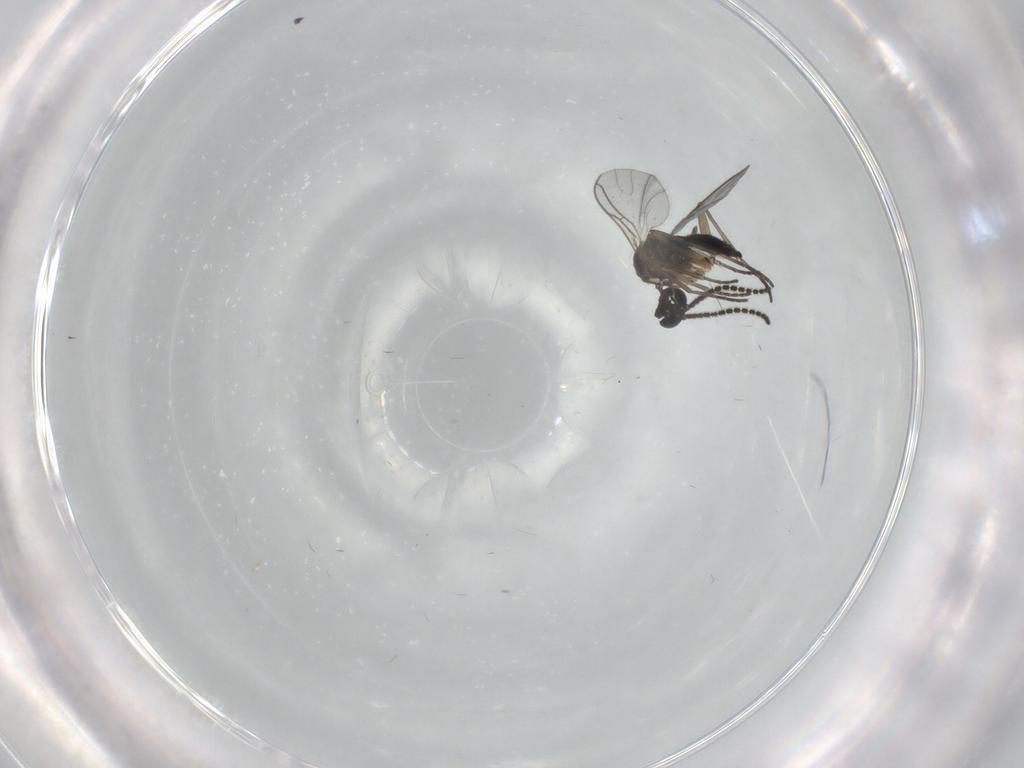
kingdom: Animalia
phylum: Arthropoda
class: Insecta
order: Diptera
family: Sciaridae
